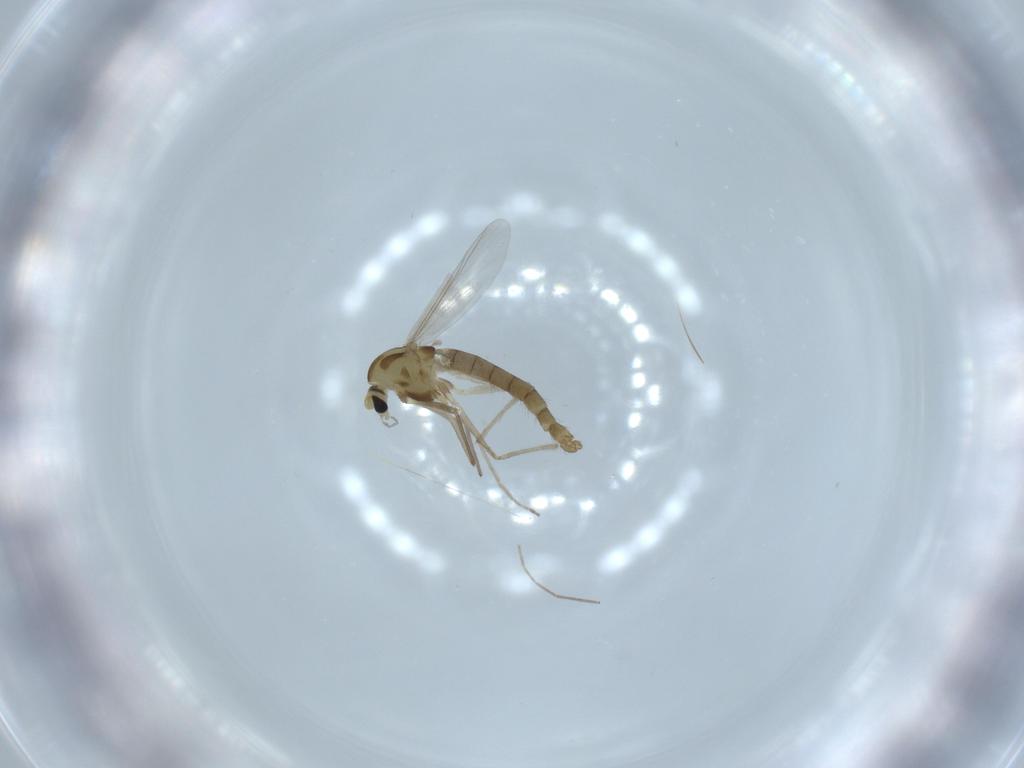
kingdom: Animalia
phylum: Arthropoda
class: Insecta
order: Diptera
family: Chironomidae
